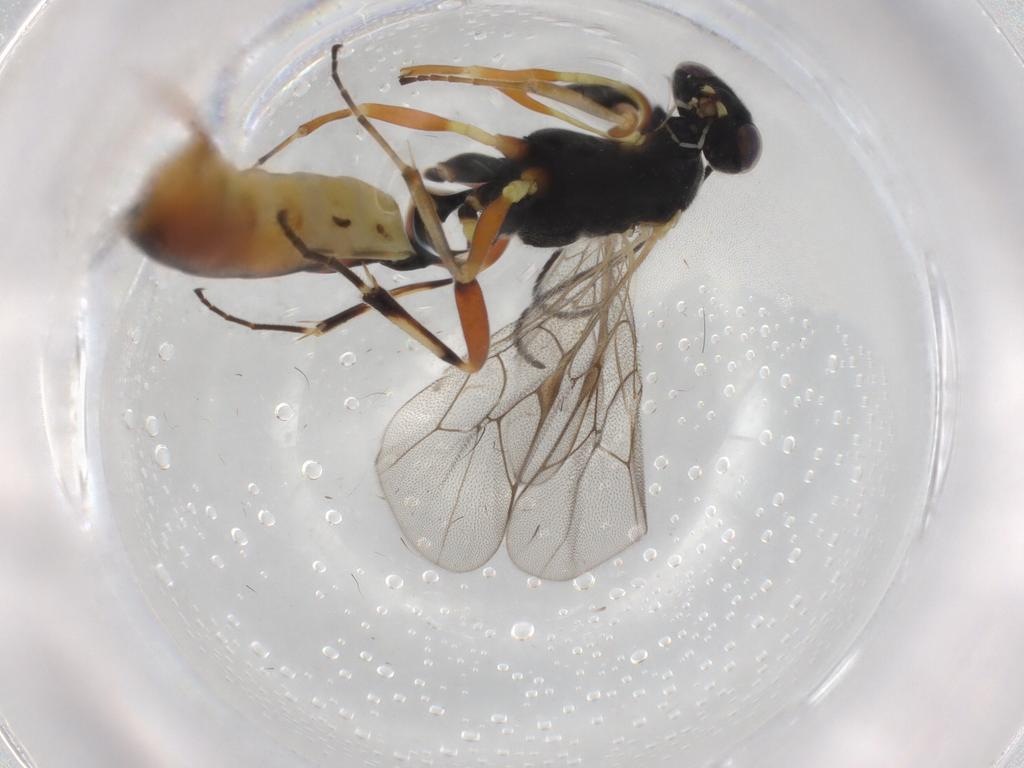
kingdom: Animalia
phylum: Arthropoda
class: Insecta
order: Hymenoptera
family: Ichneumonidae
